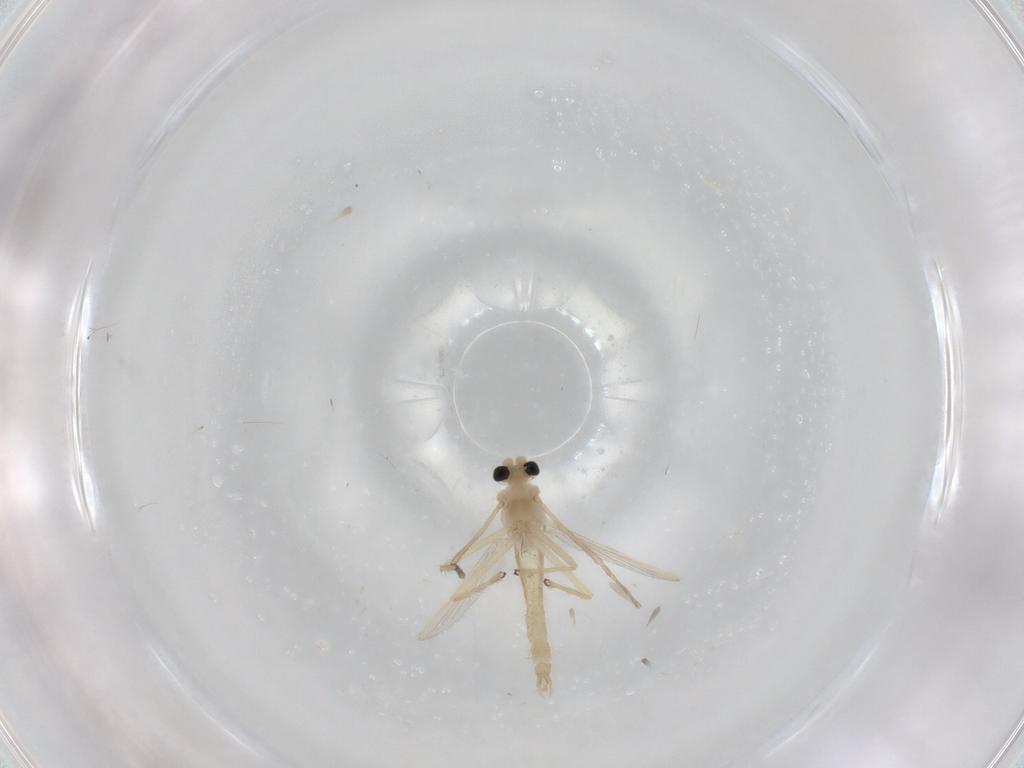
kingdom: Animalia
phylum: Arthropoda
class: Insecta
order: Diptera
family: Chironomidae
